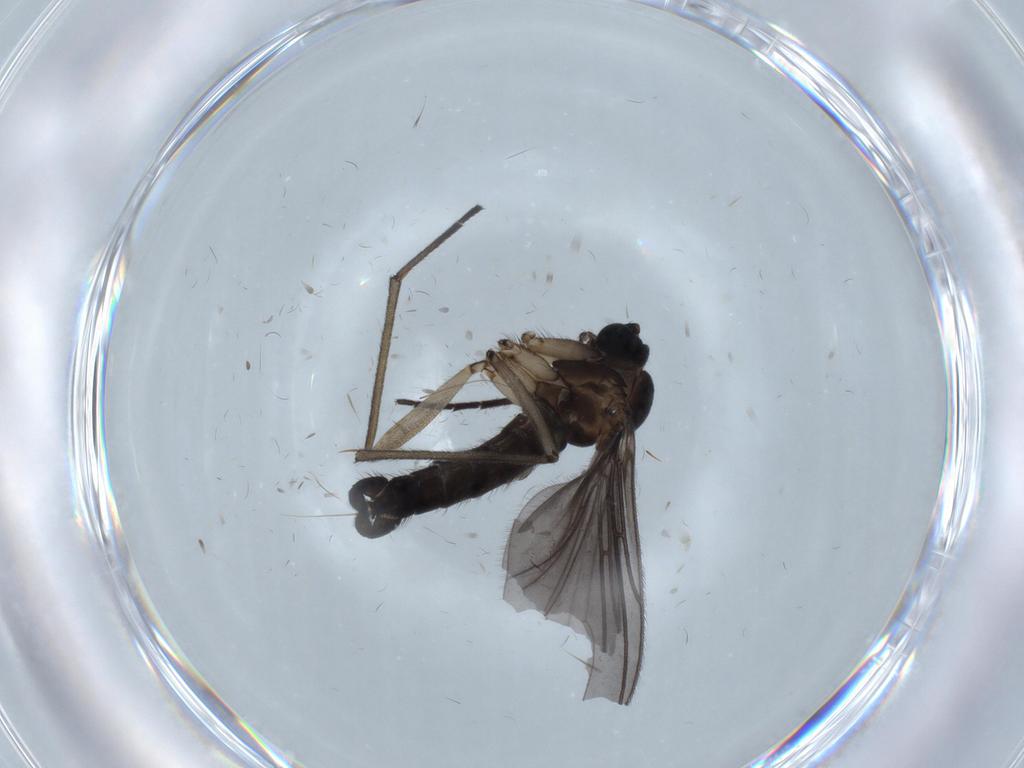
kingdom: Animalia
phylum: Arthropoda
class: Insecta
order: Diptera
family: Sciaridae
